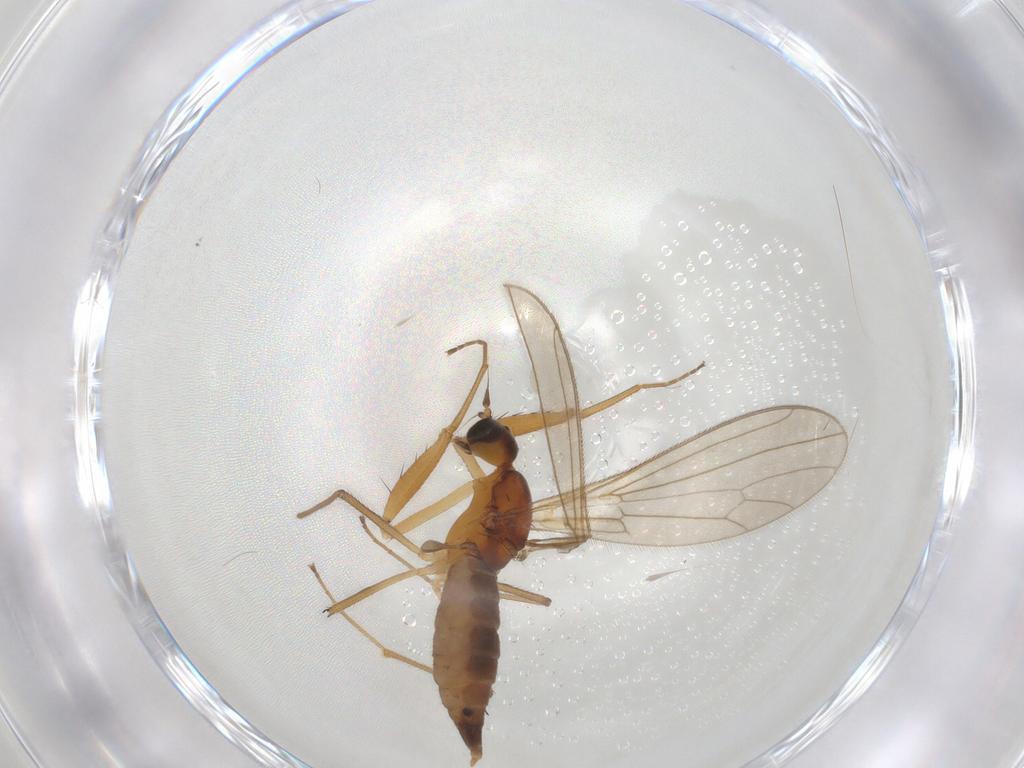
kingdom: Animalia
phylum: Arthropoda
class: Insecta
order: Diptera
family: Empididae
